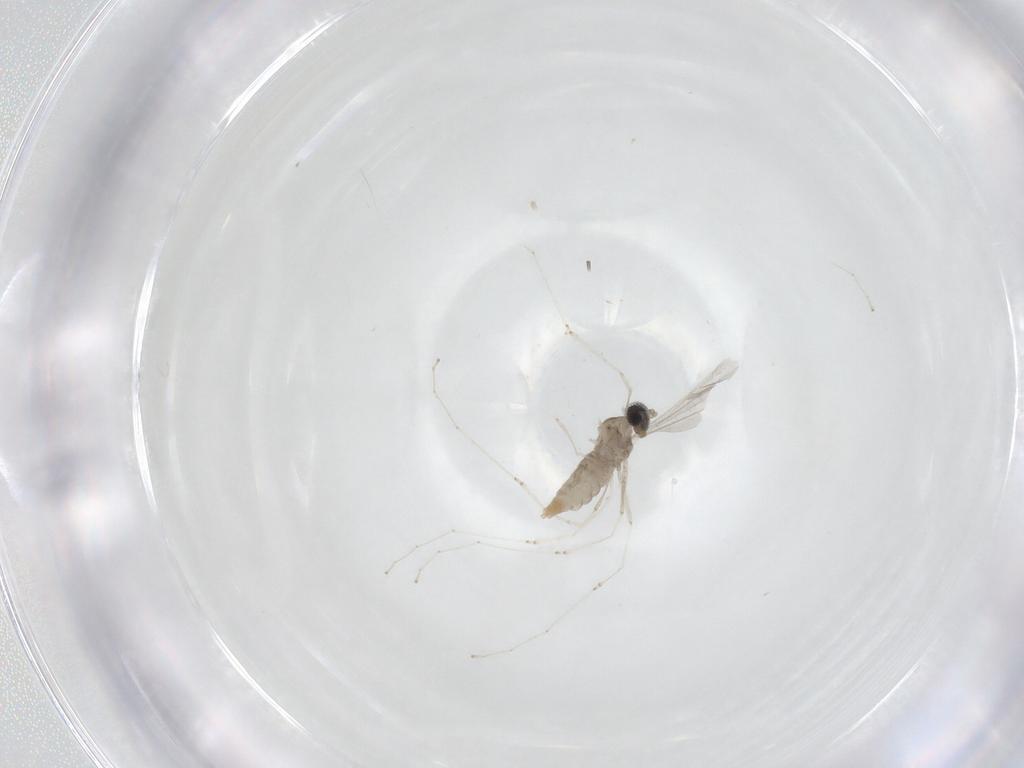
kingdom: Animalia
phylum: Arthropoda
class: Insecta
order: Diptera
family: Cecidomyiidae
